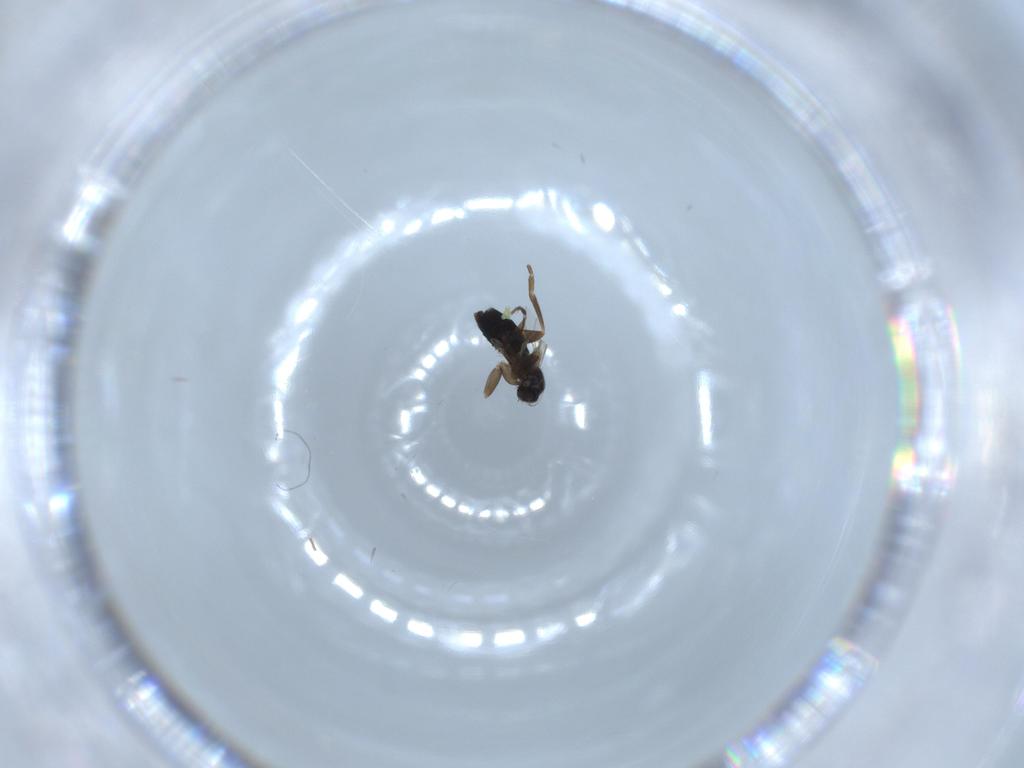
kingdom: Animalia
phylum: Arthropoda
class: Insecta
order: Diptera
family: Phoridae
